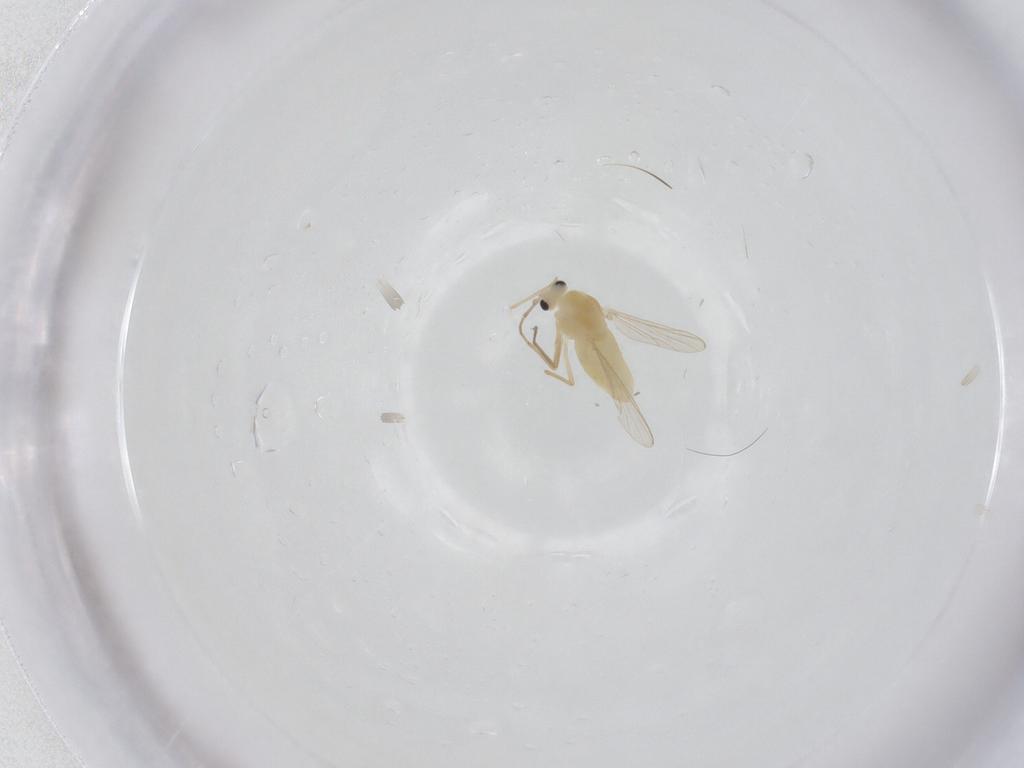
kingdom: Animalia
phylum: Arthropoda
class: Insecta
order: Diptera
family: Chironomidae
